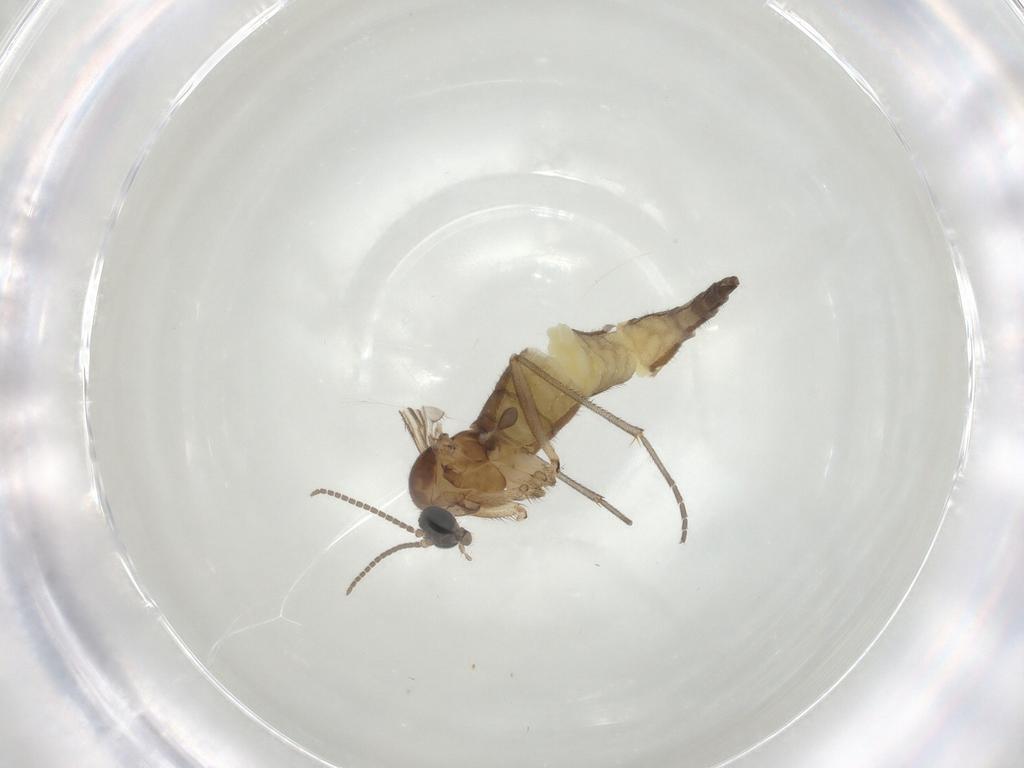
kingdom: Animalia
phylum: Arthropoda
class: Insecta
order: Diptera
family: Sciaridae
